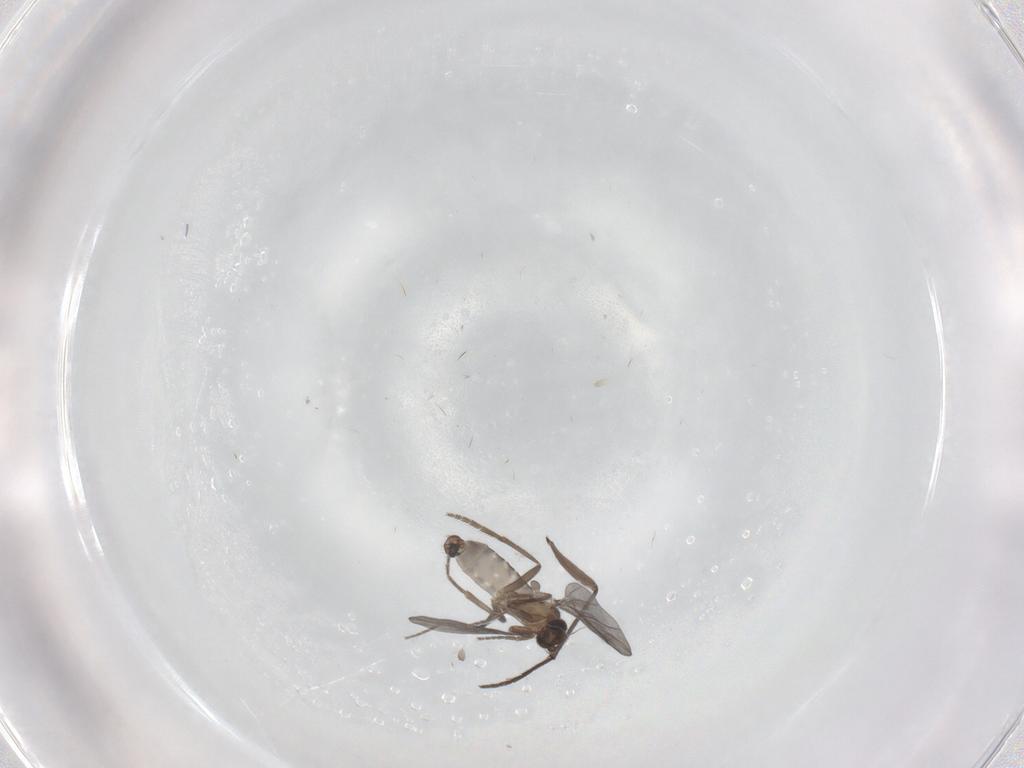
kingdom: Animalia
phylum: Arthropoda
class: Insecta
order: Diptera
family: Phoridae
